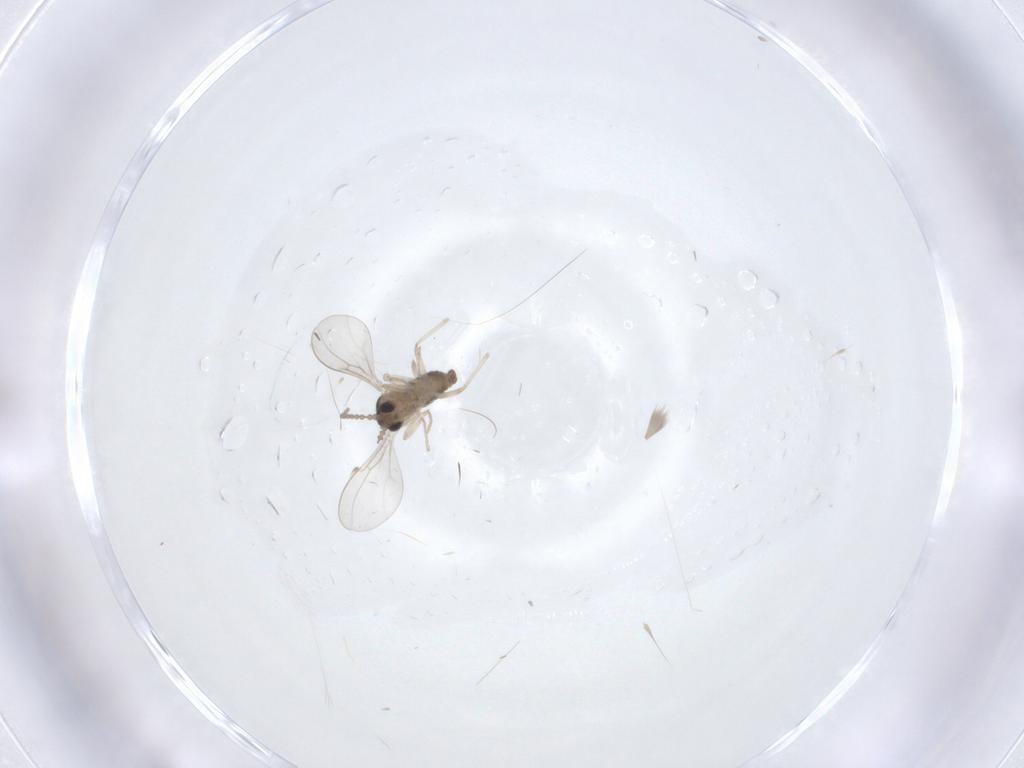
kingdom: Animalia
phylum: Arthropoda
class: Insecta
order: Diptera
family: Cecidomyiidae
